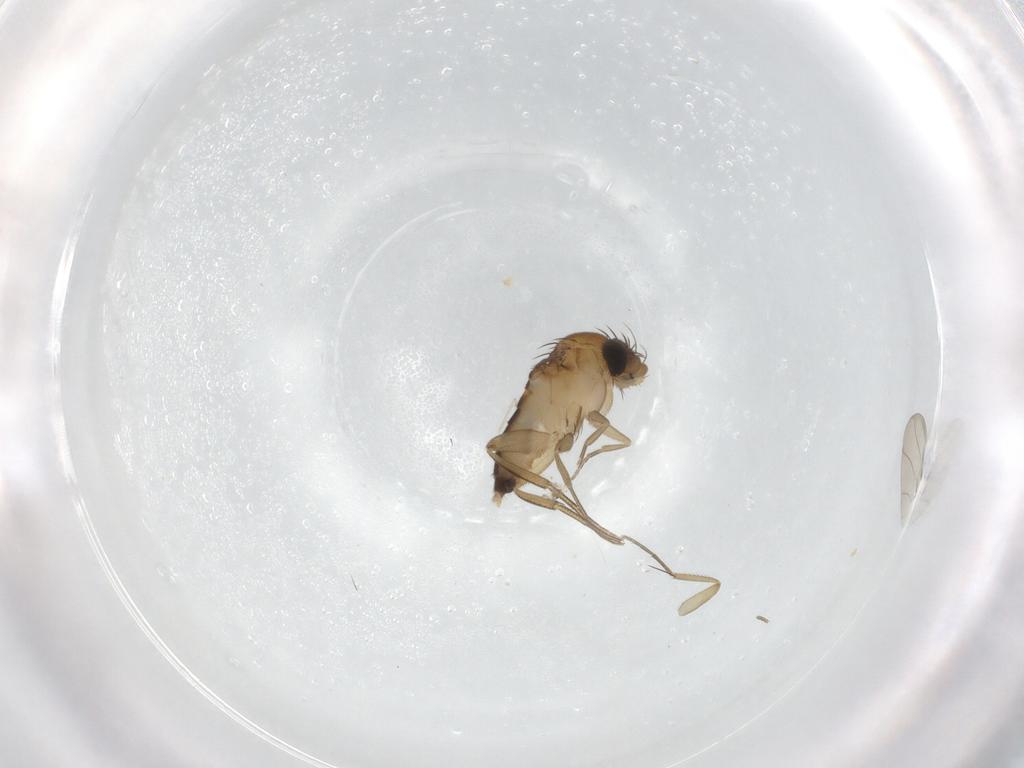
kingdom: Animalia
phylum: Arthropoda
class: Insecta
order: Diptera
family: Phoridae
